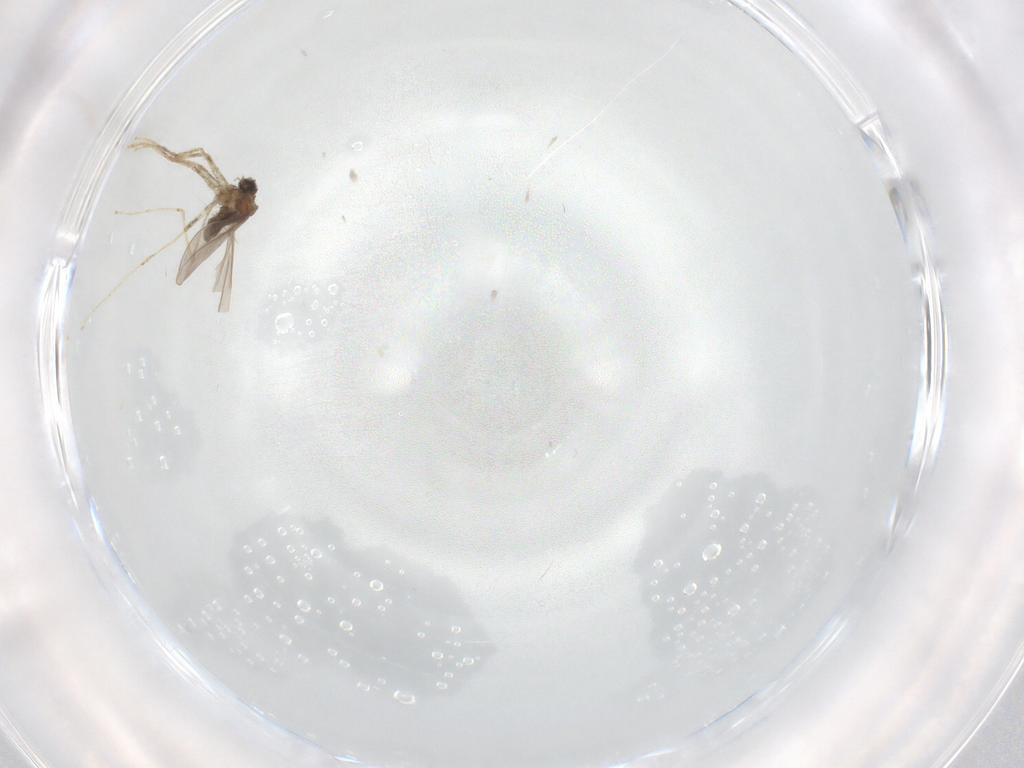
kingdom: Animalia
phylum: Arthropoda
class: Insecta
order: Diptera
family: Cecidomyiidae
